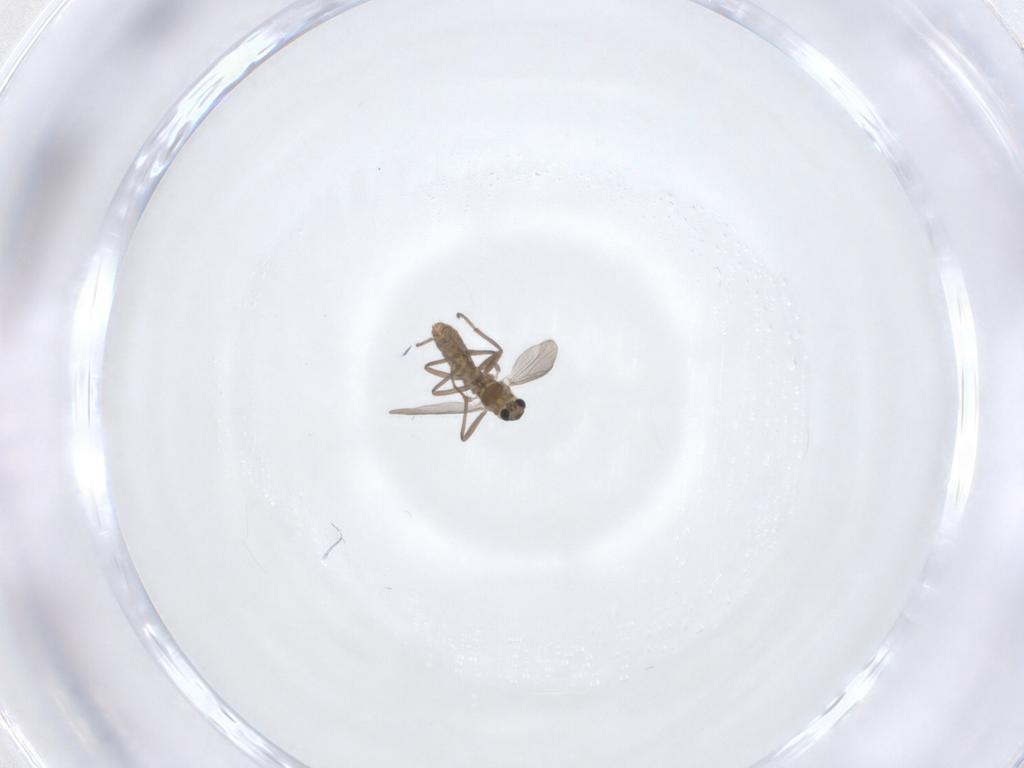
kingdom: Animalia
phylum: Arthropoda
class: Insecta
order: Diptera
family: Chironomidae
